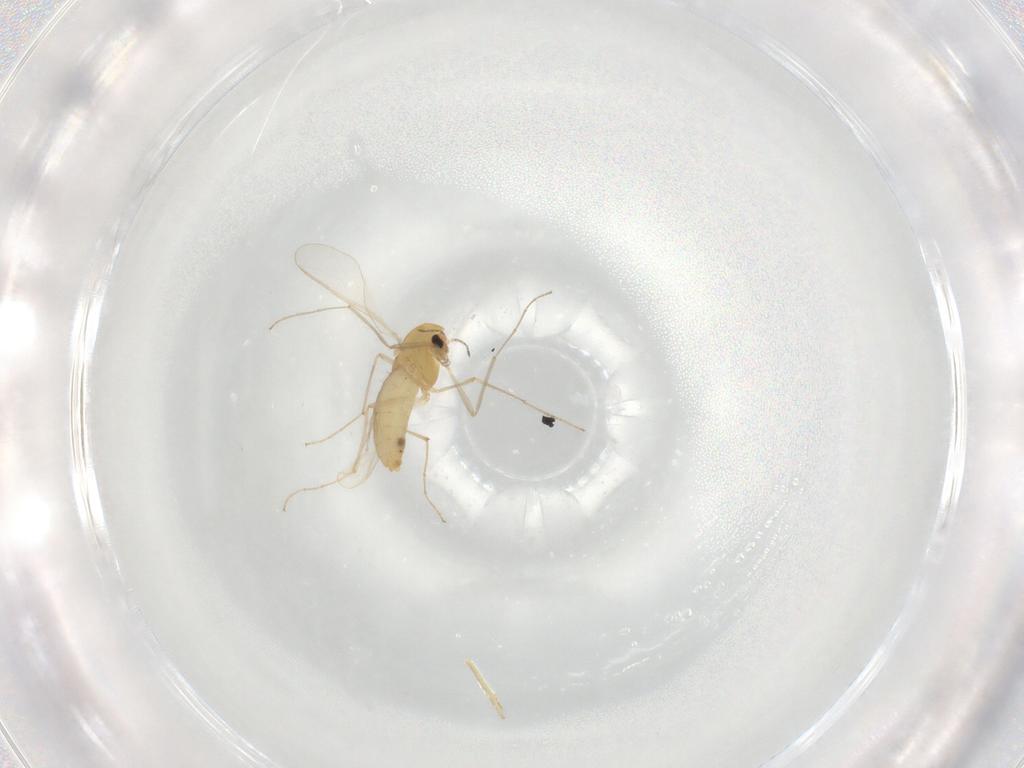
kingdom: Animalia
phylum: Arthropoda
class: Insecta
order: Diptera
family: Chironomidae
